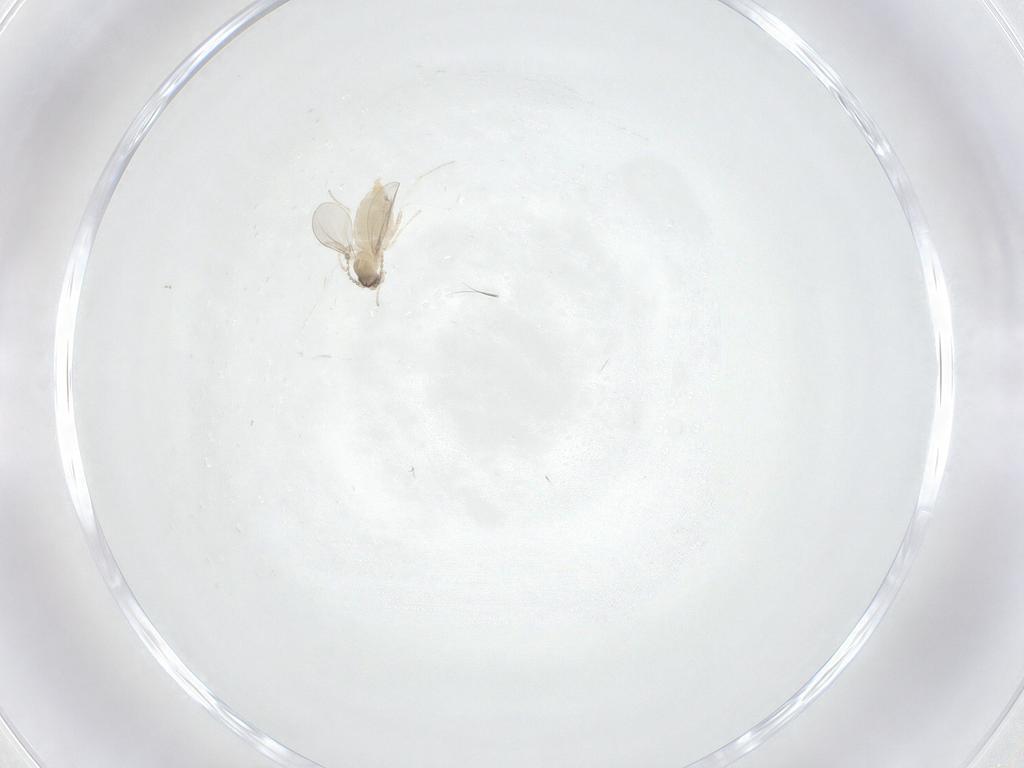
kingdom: Animalia
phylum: Arthropoda
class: Insecta
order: Diptera
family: Cecidomyiidae
